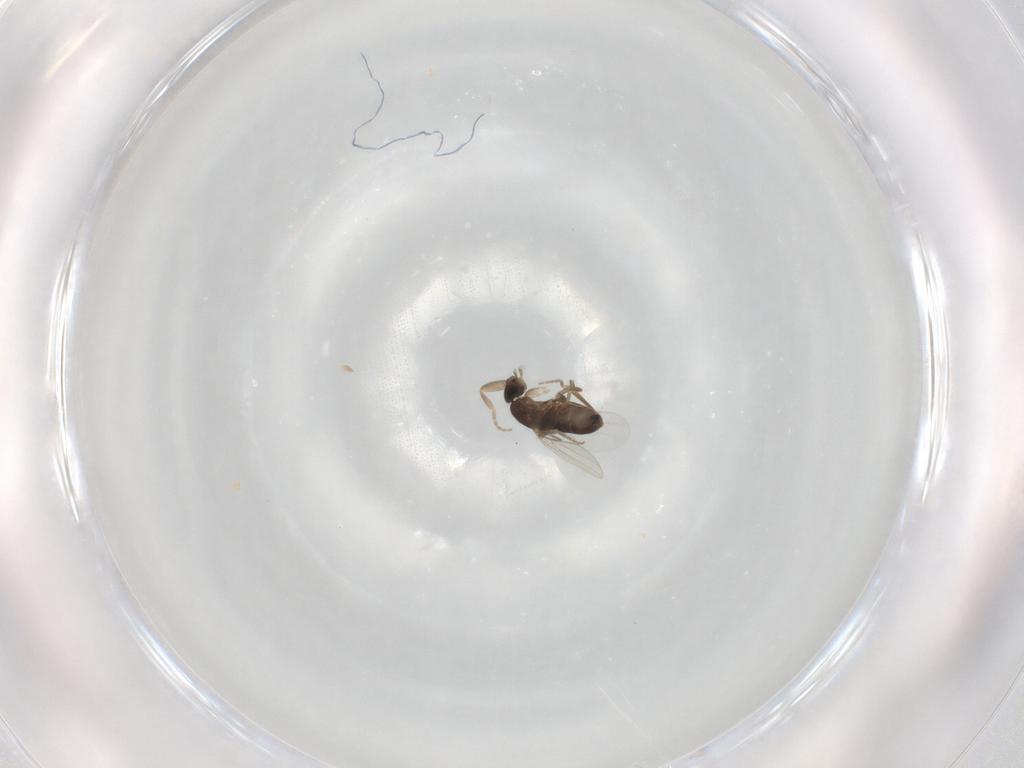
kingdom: Animalia
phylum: Arthropoda
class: Insecta
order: Diptera
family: Phoridae
